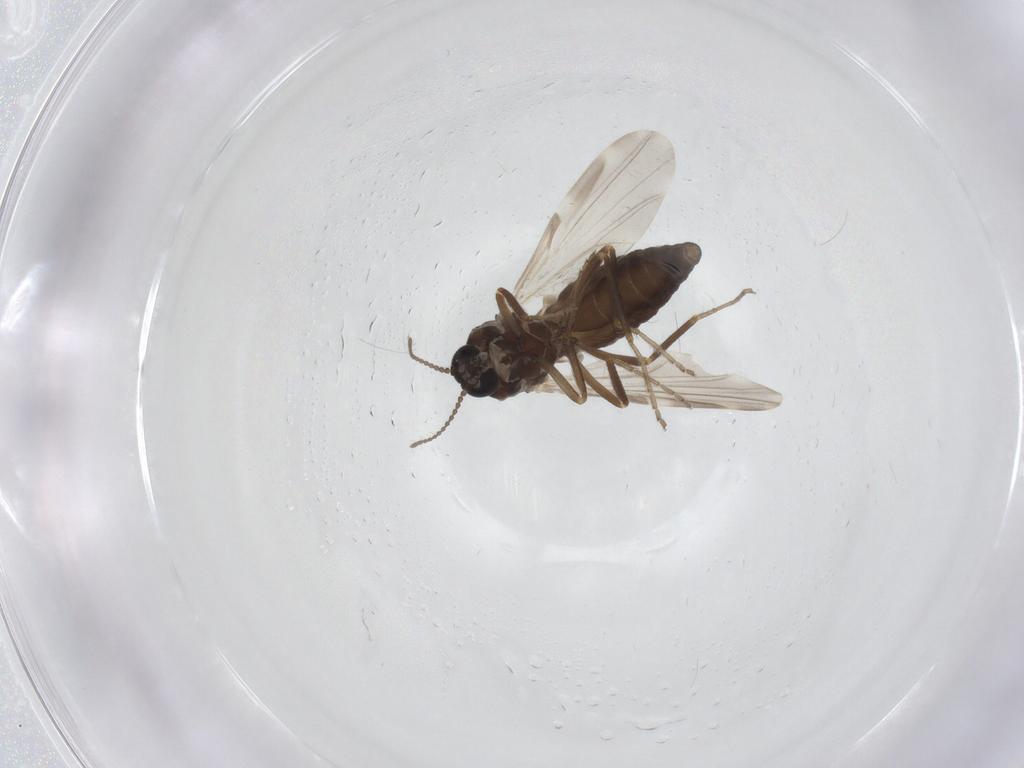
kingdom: Animalia
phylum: Arthropoda
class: Insecta
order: Diptera
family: Ceratopogonidae
